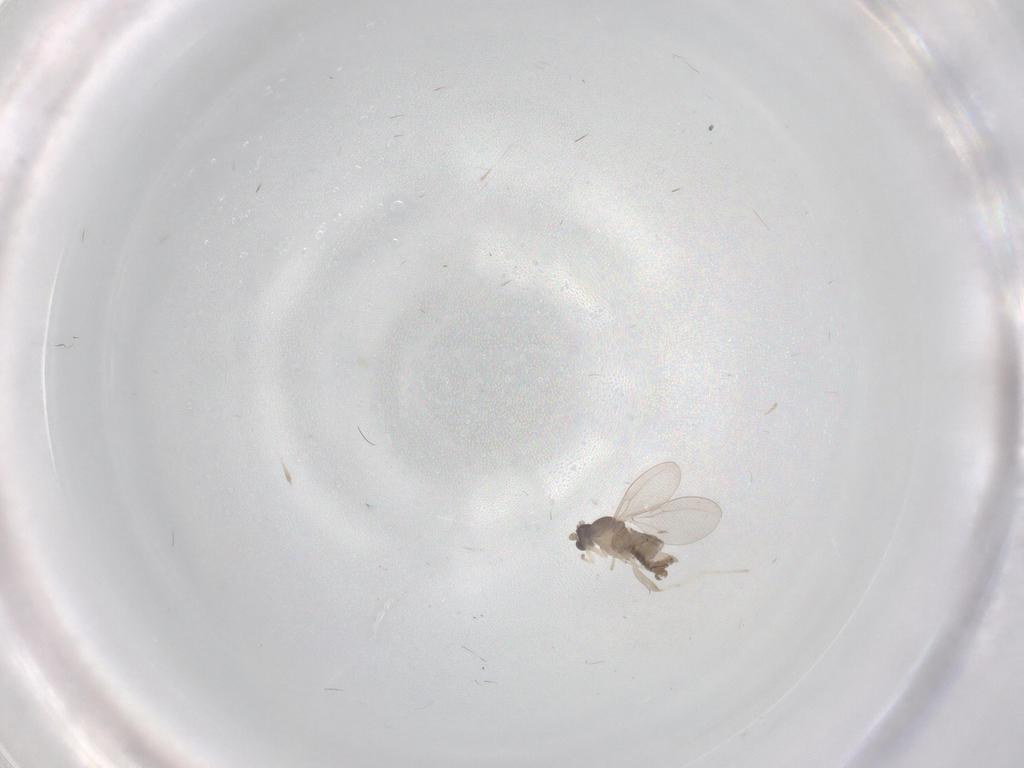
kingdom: Animalia
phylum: Arthropoda
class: Insecta
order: Diptera
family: Cecidomyiidae
